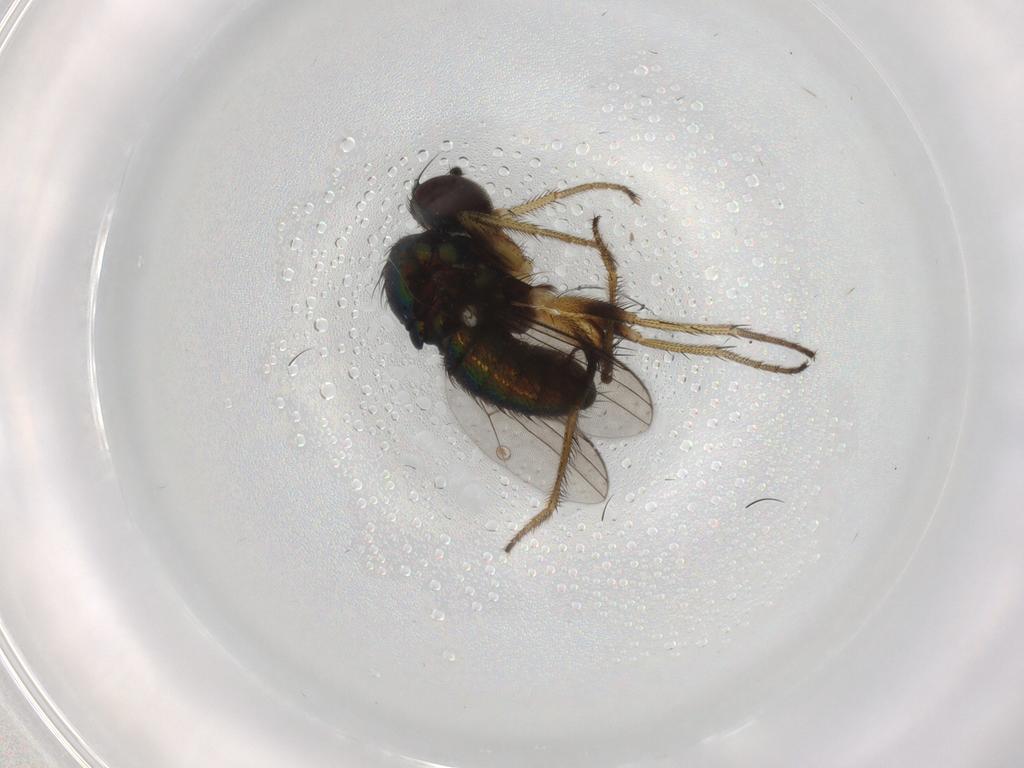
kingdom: Animalia
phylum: Arthropoda
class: Insecta
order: Diptera
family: Dolichopodidae
